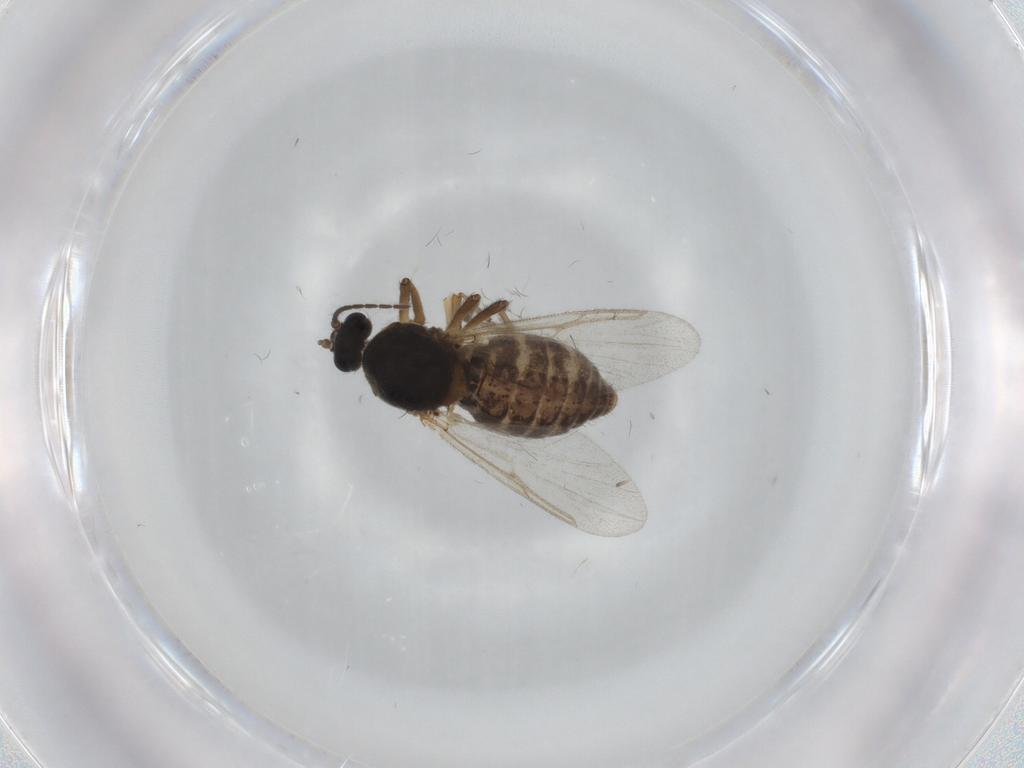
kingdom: Animalia
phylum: Arthropoda
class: Insecta
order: Diptera
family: Ceratopogonidae
